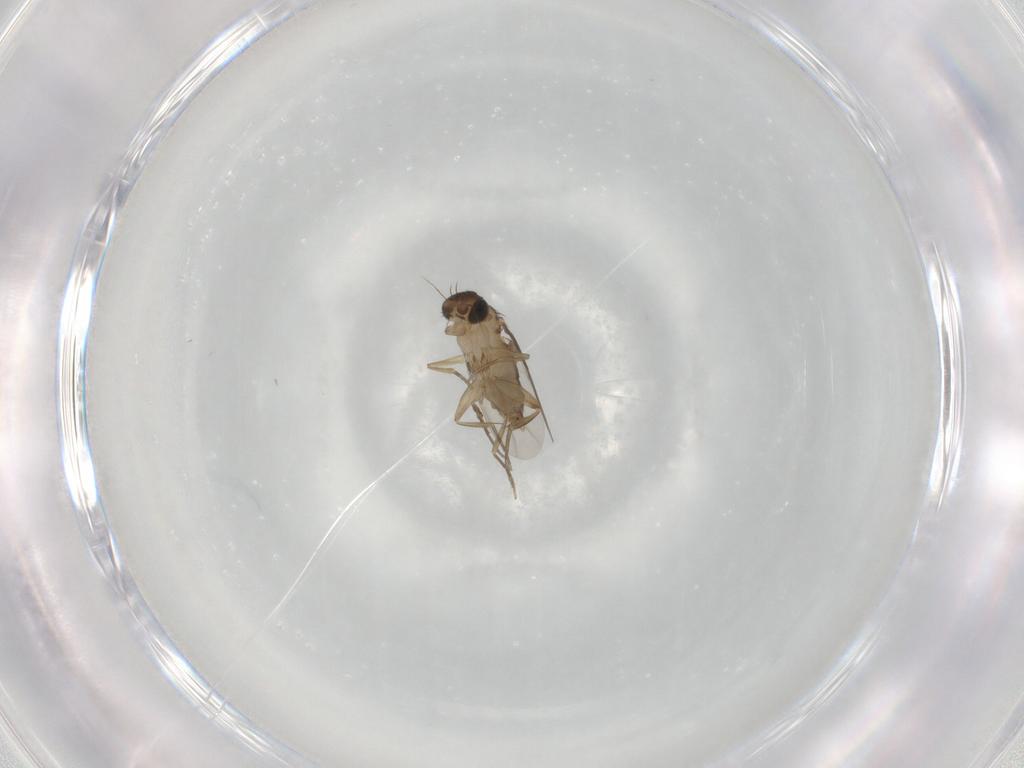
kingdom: Animalia
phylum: Arthropoda
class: Insecta
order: Diptera
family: Phoridae
